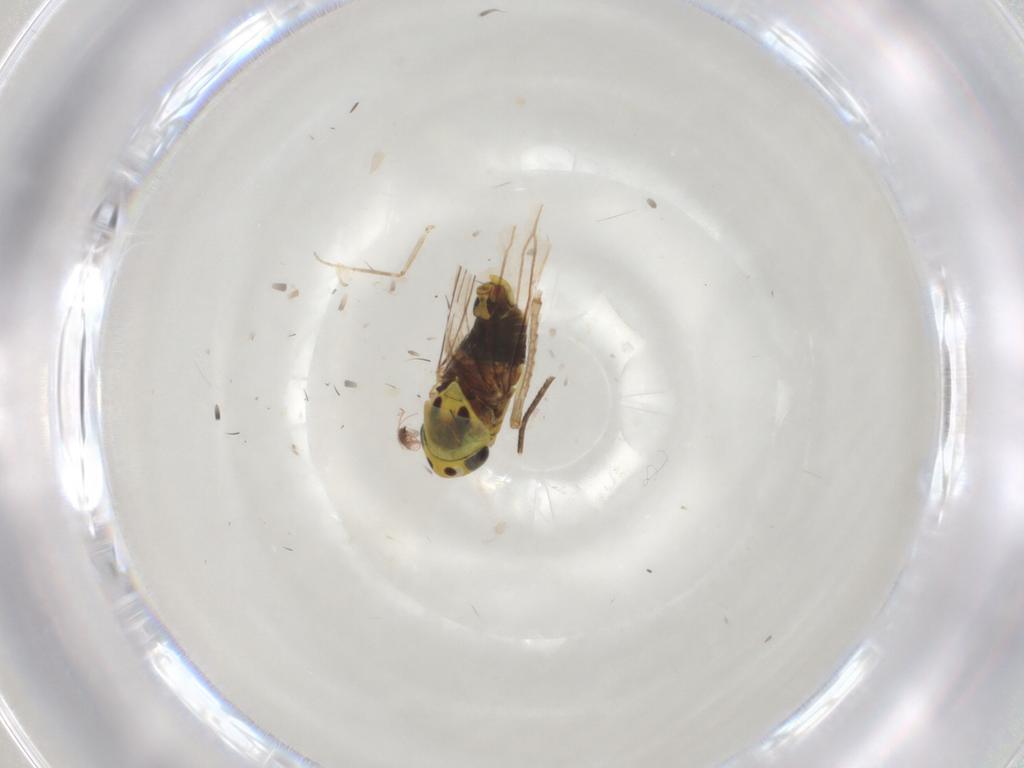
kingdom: Animalia
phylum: Arthropoda
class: Insecta
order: Hemiptera
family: Cicadellidae
